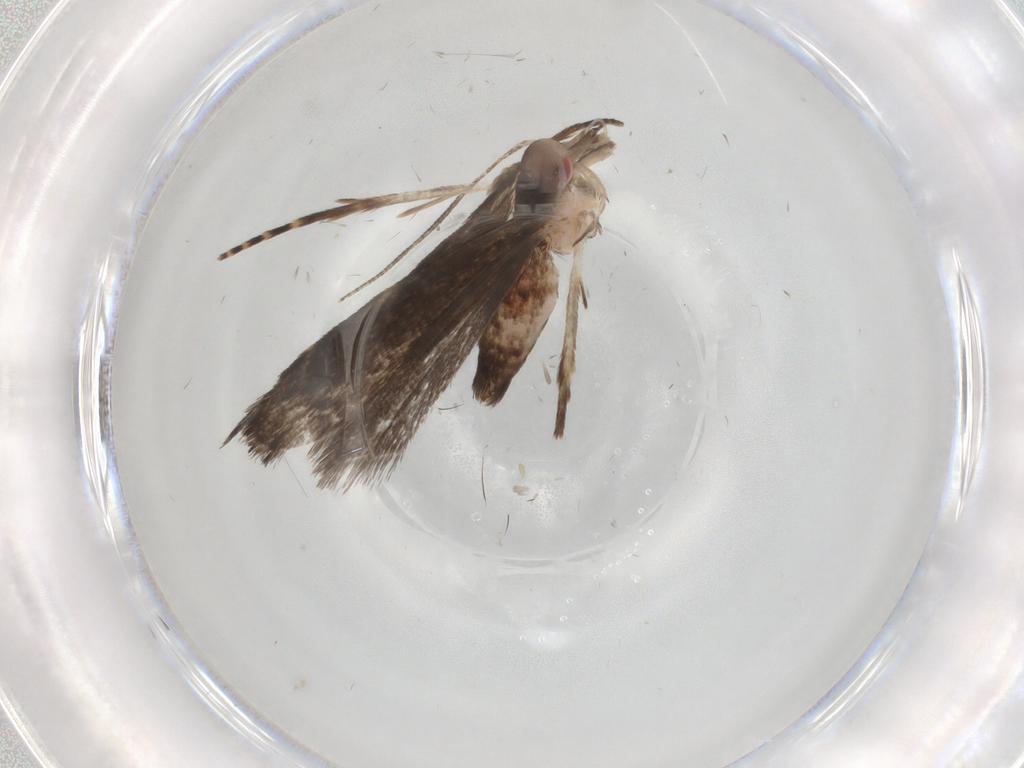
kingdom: Animalia
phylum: Arthropoda
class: Insecta
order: Lepidoptera
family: Gelechiidae
